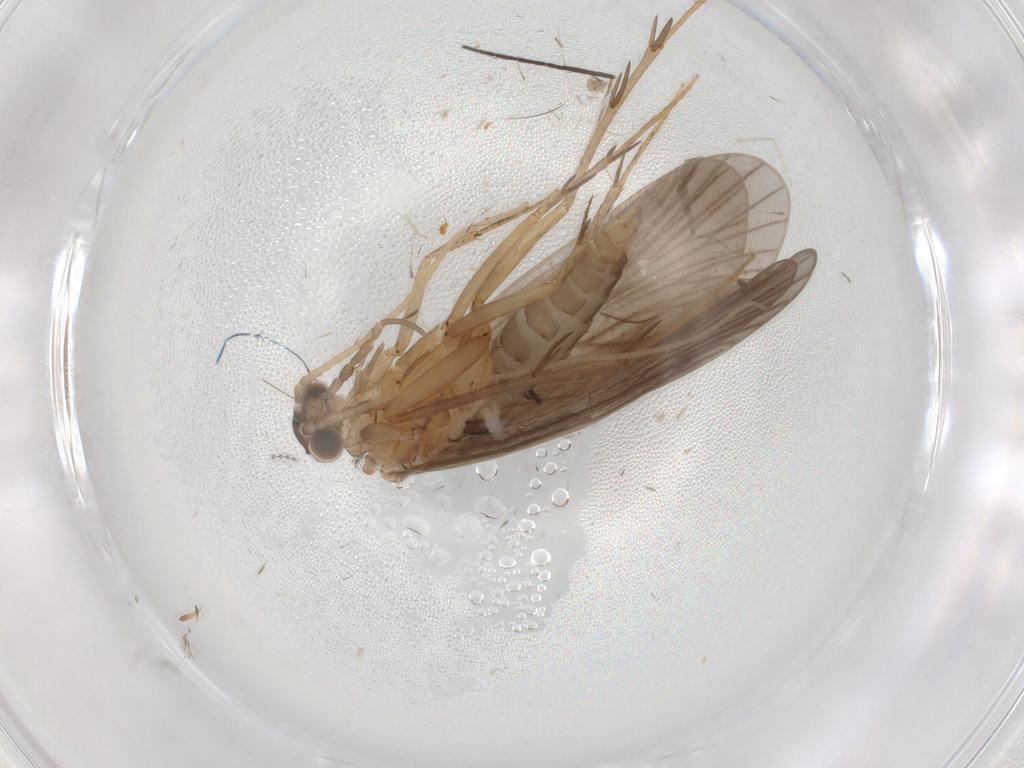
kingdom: Animalia
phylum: Arthropoda
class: Insecta
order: Trichoptera
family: Philopotamidae
